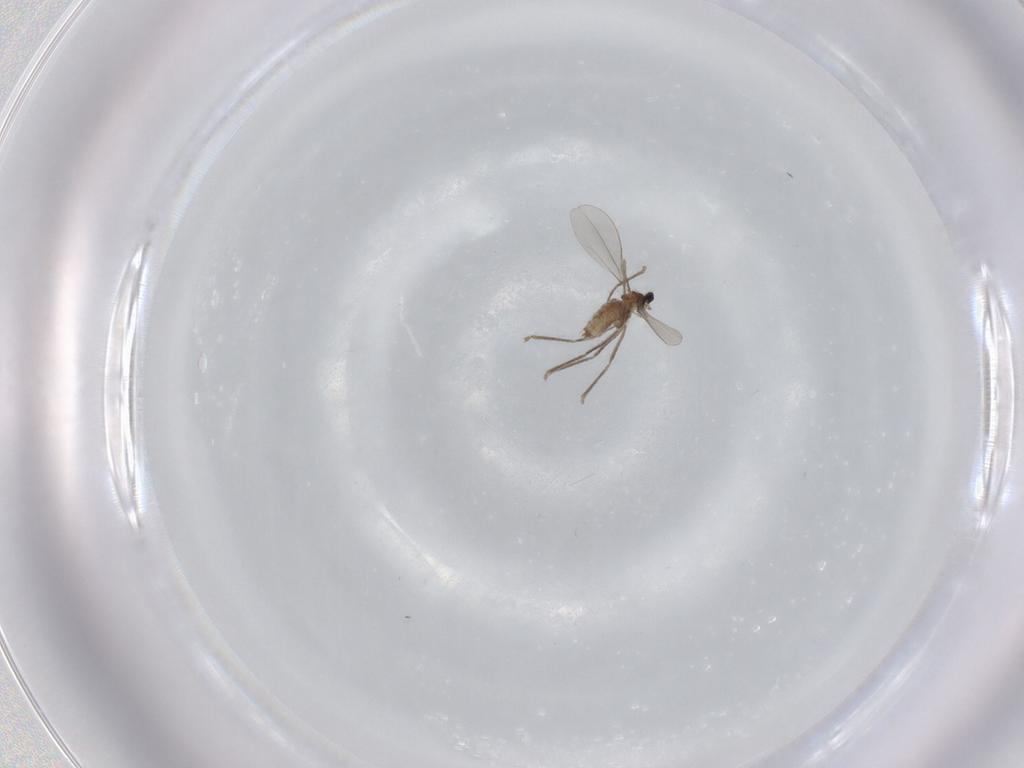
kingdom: Animalia
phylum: Arthropoda
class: Insecta
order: Diptera
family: Cecidomyiidae
